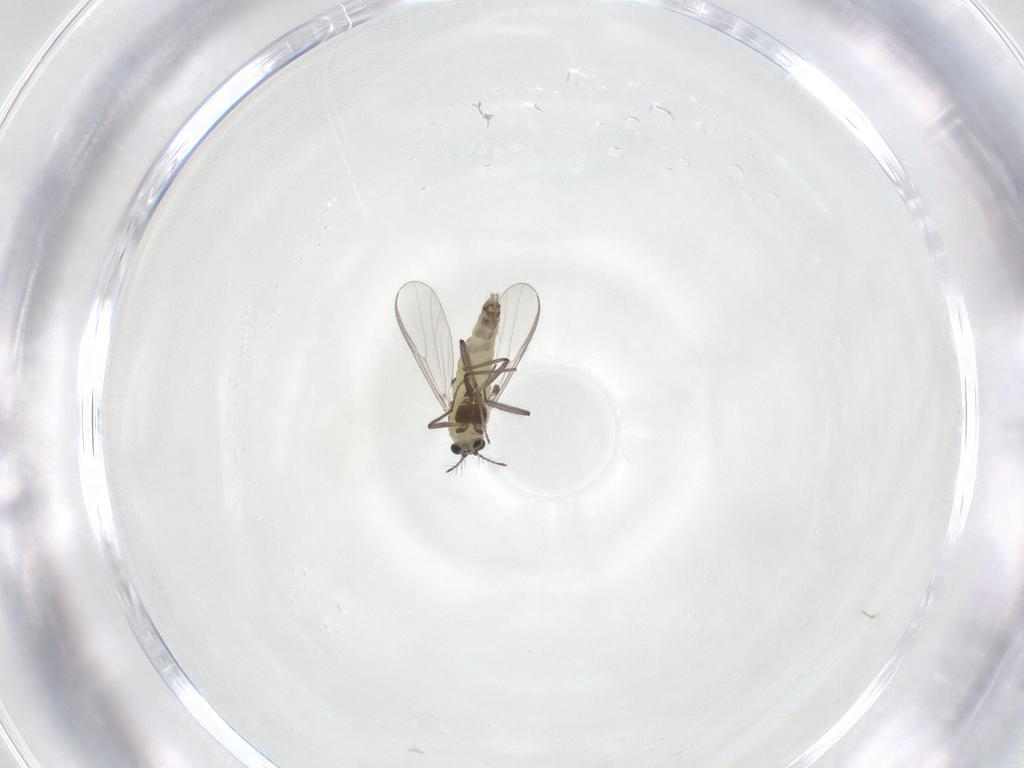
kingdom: Animalia
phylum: Arthropoda
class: Insecta
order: Diptera
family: Chironomidae
